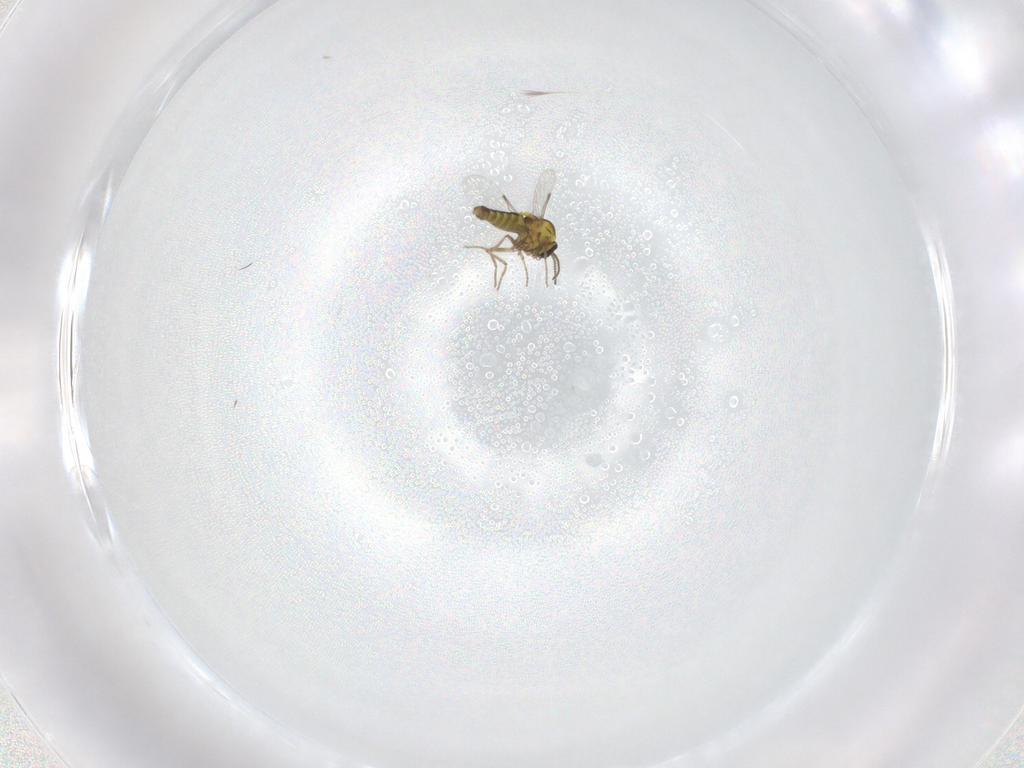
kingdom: Animalia
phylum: Arthropoda
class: Insecta
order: Diptera
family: Ceratopogonidae
